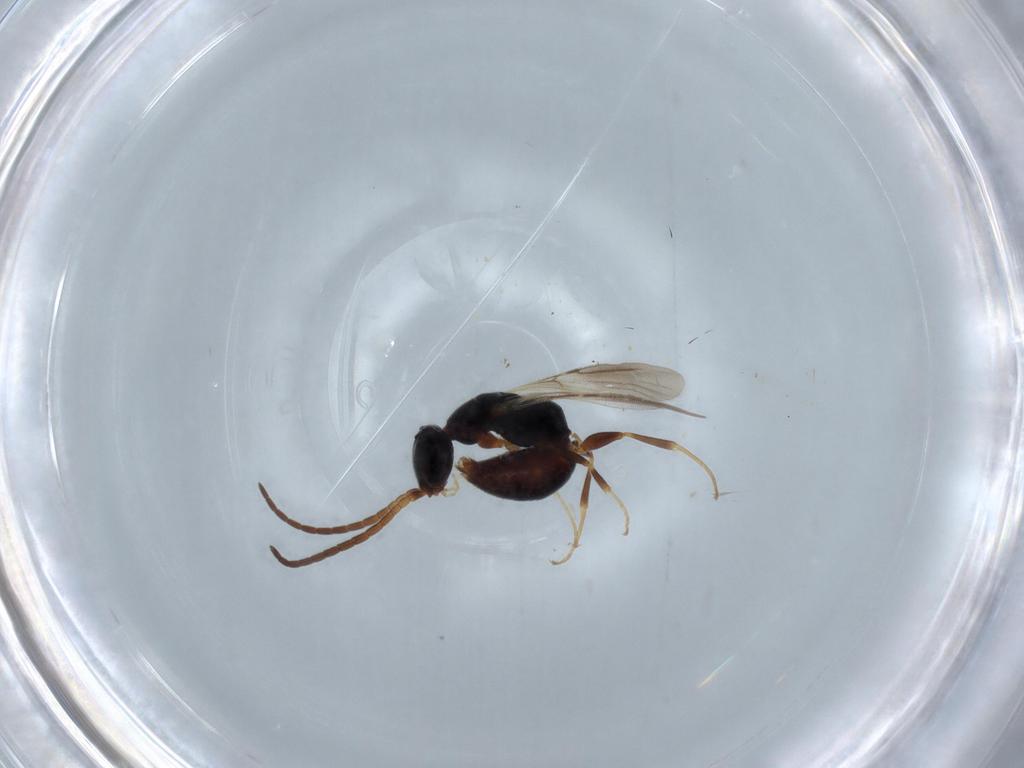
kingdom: Animalia
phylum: Arthropoda
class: Insecta
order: Hymenoptera
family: Bethylidae
